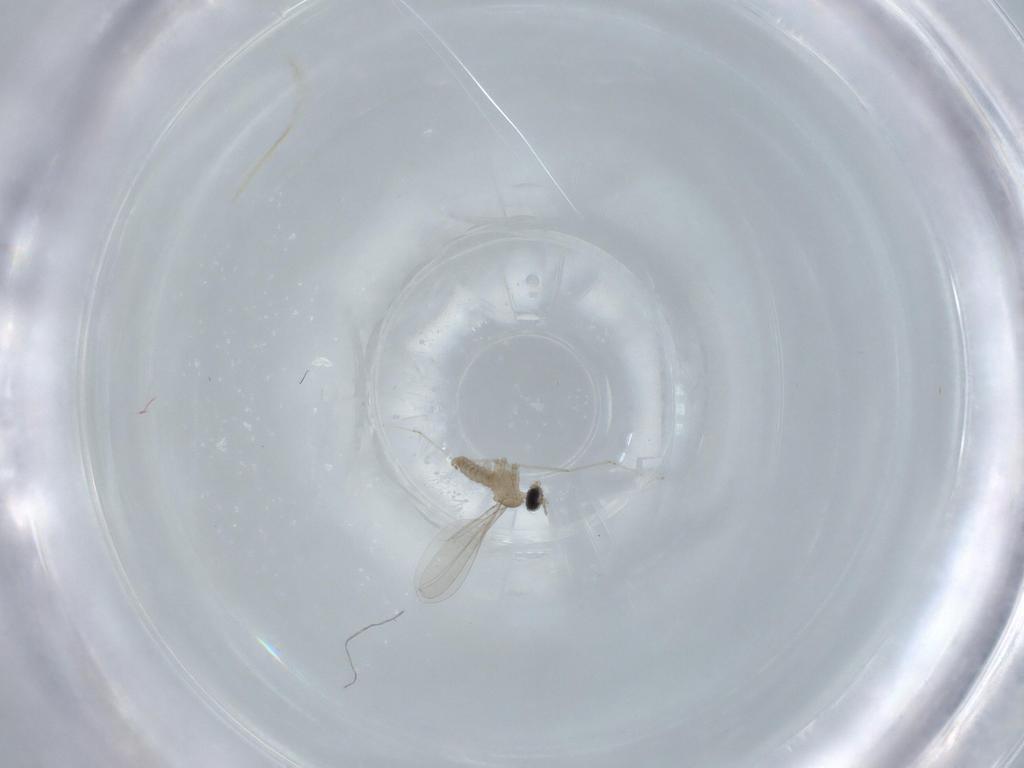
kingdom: Animalia
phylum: Arthropoda
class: Insecta
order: Diptera
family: Cecidomyiidae
